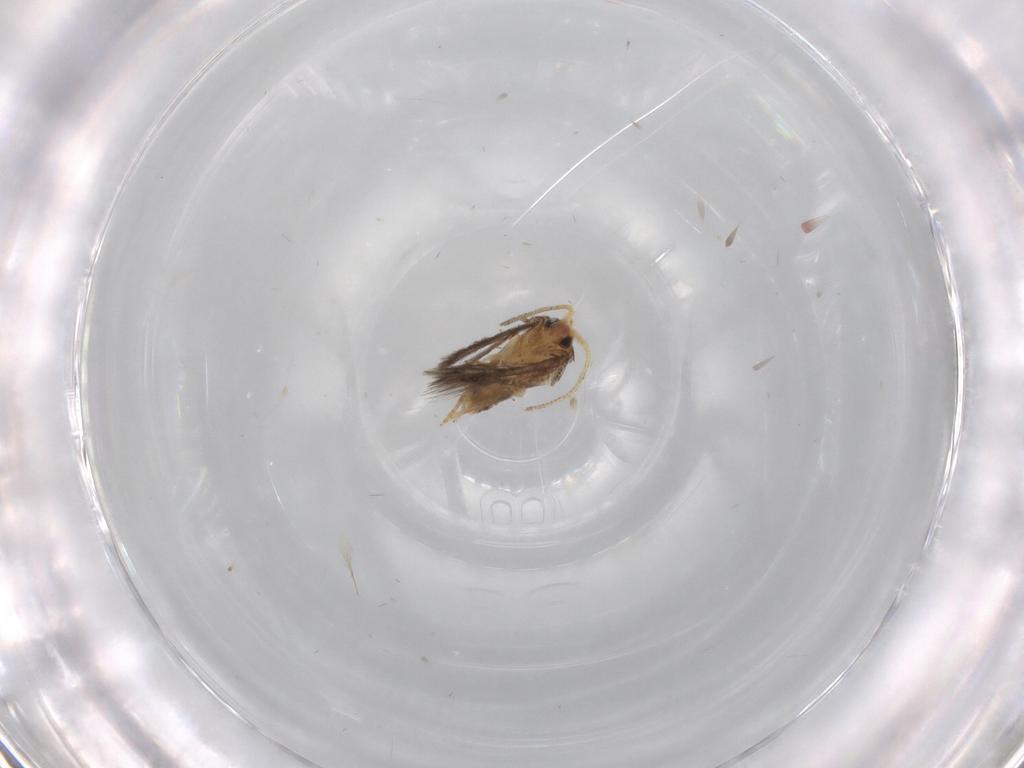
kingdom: Animalia
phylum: Arthropoda
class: Insecta
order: Lepidoptera
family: Nepticulidae
